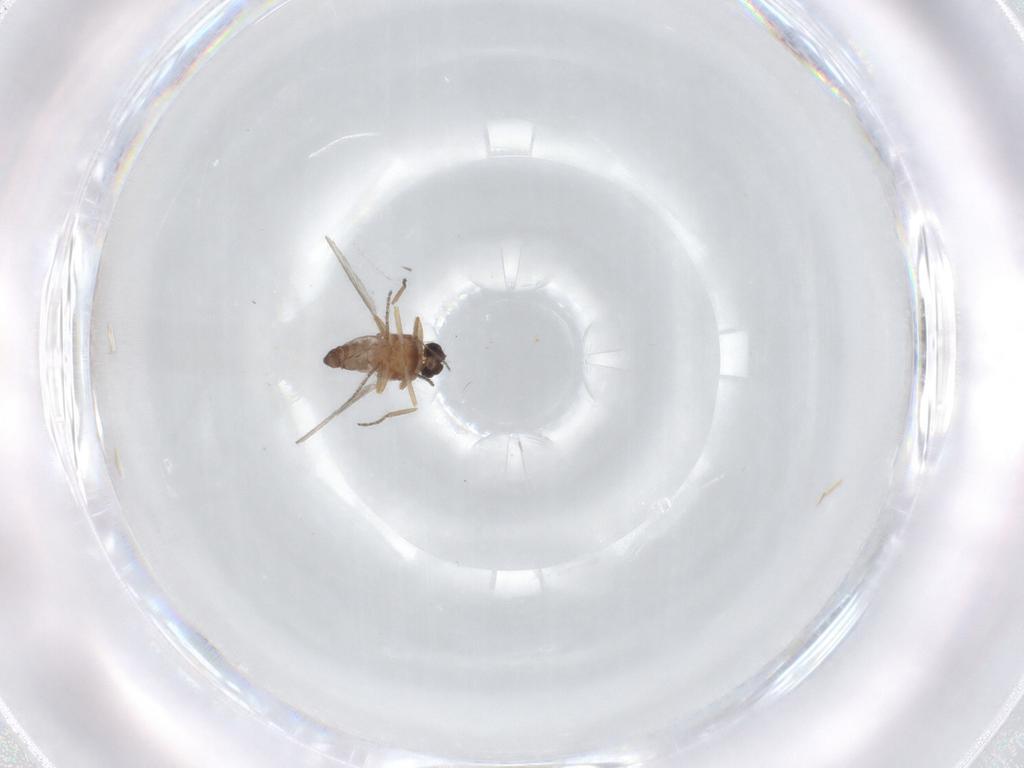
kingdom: Animalia
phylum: Arthropoda
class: Insecta
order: Diptera
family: Ceratopogonidae
